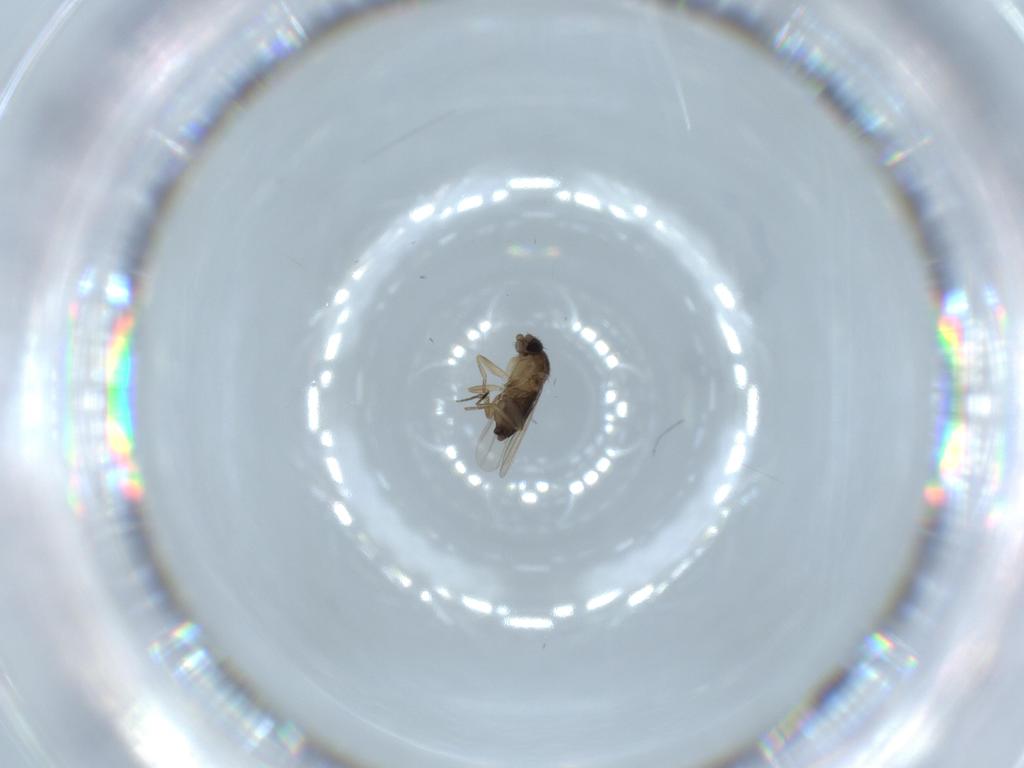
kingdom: Animalia
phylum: Arthropoda
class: Insecta
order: Diptera
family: Phoridae
